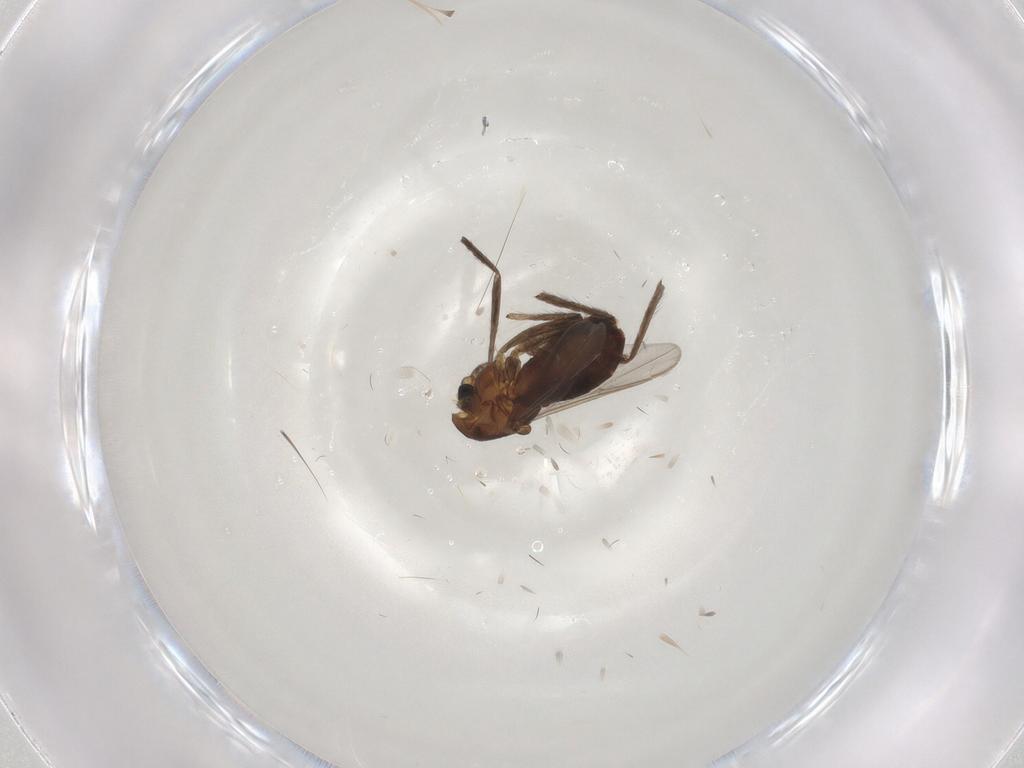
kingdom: Animalia
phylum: Arthropoda
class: Insecta
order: Diptera
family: Chironomidae
